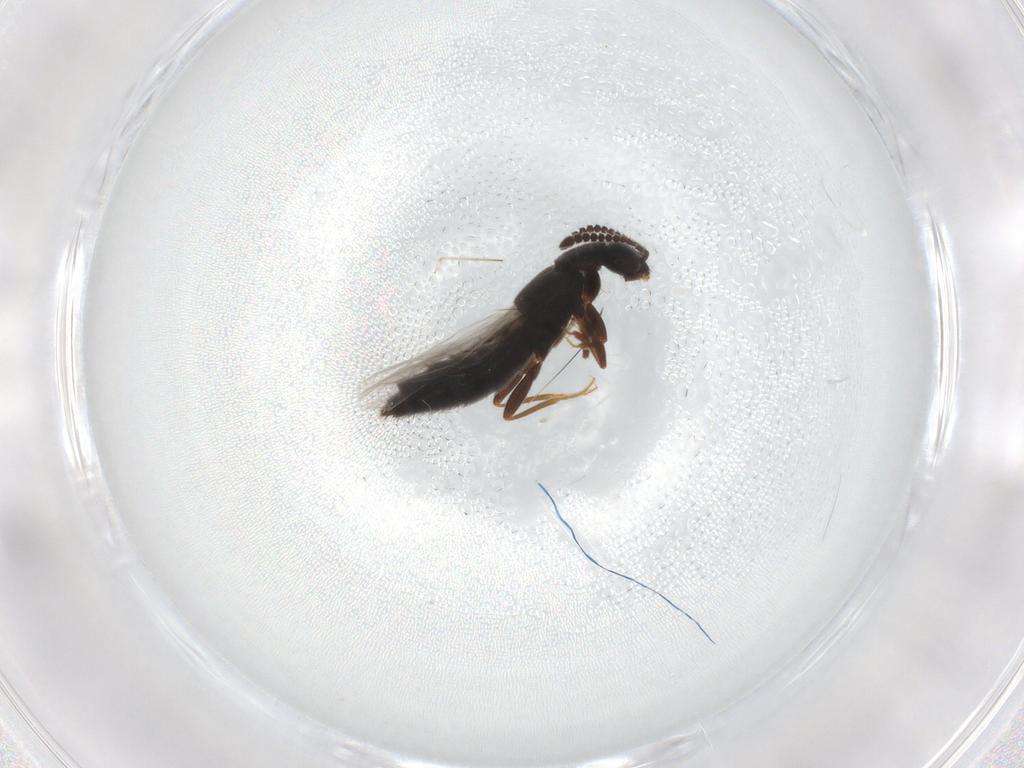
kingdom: Animalia
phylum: Arthropoda
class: Insecta
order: Coleoptera
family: Staphylinidae
